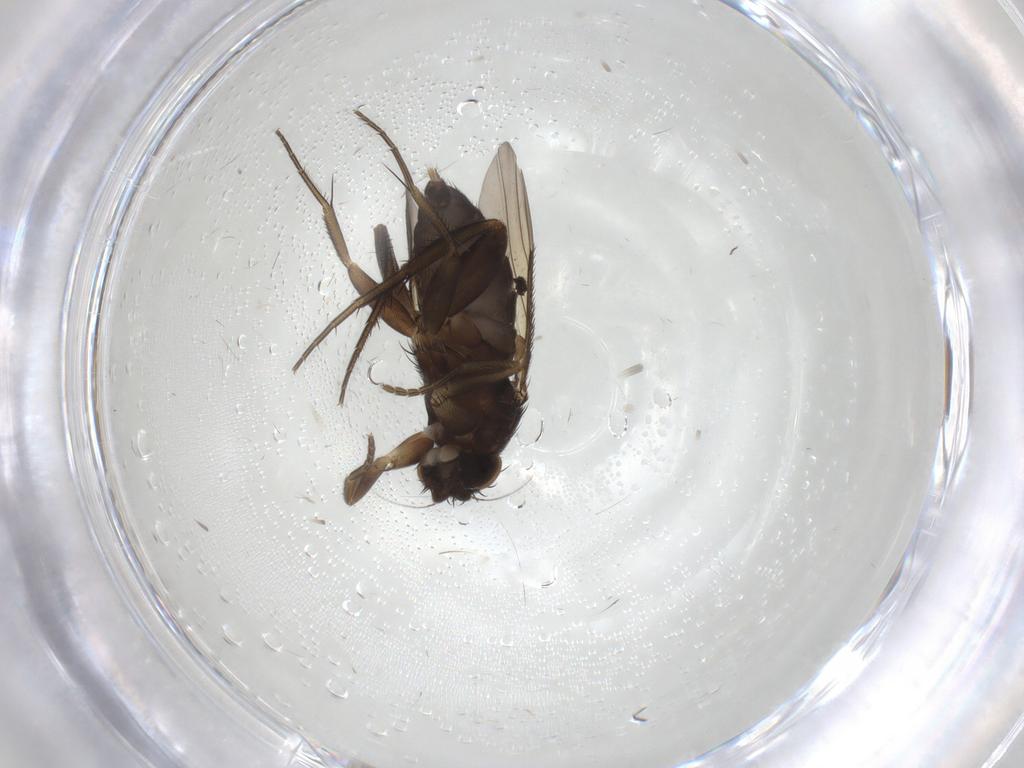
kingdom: Animalia
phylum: Arthropoda
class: Insecta
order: Diptera
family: Phoridae
